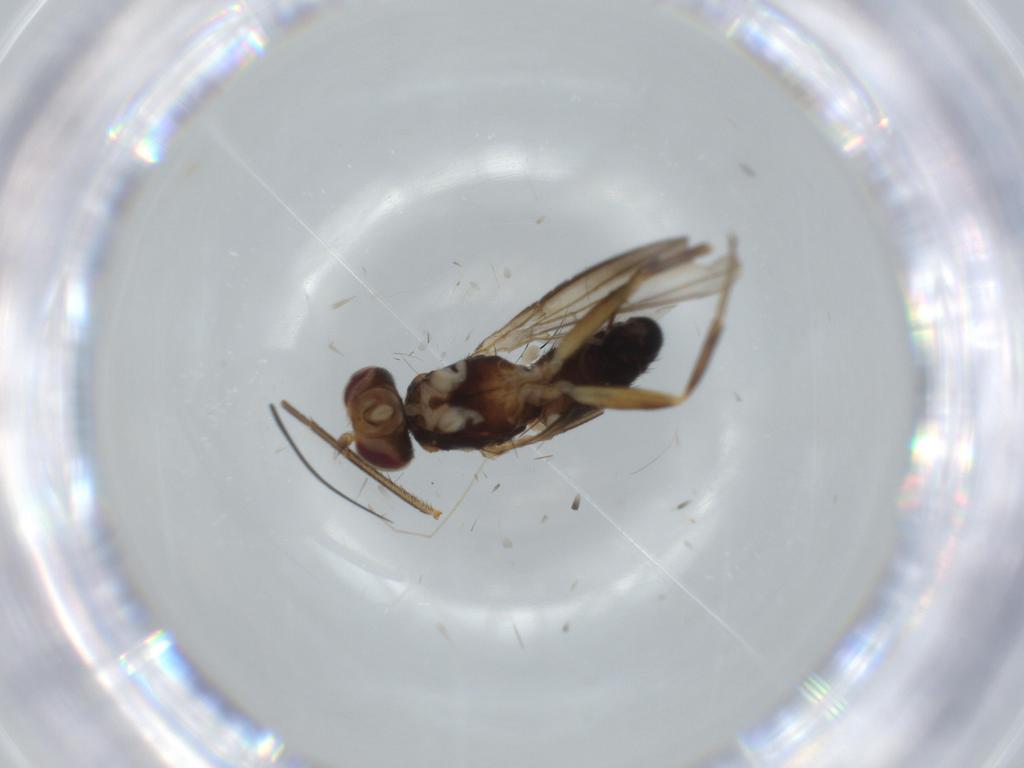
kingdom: Animalia
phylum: Arthropoda
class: Insecta
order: Diptera
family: Clusiidae
